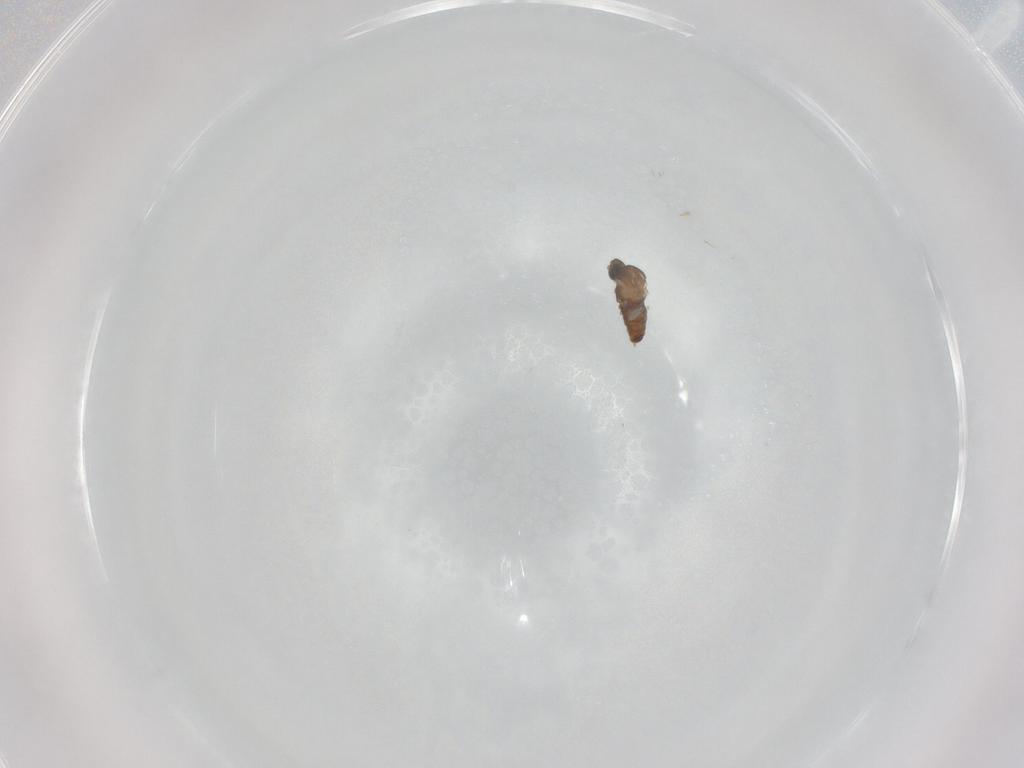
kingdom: Animalia
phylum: Arthropoda
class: Insecta
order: Diptera
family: Cecidomyiidae
